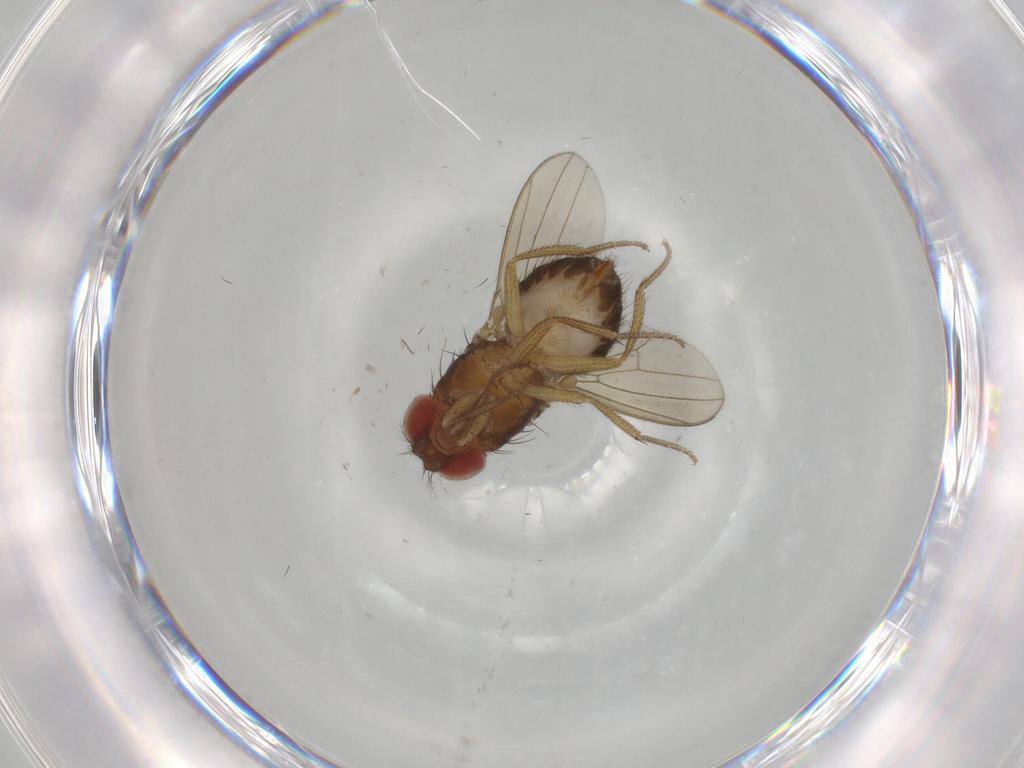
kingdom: Animalia
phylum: Arthropoda
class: Insecta
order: Diptera
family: Drosophilidae
